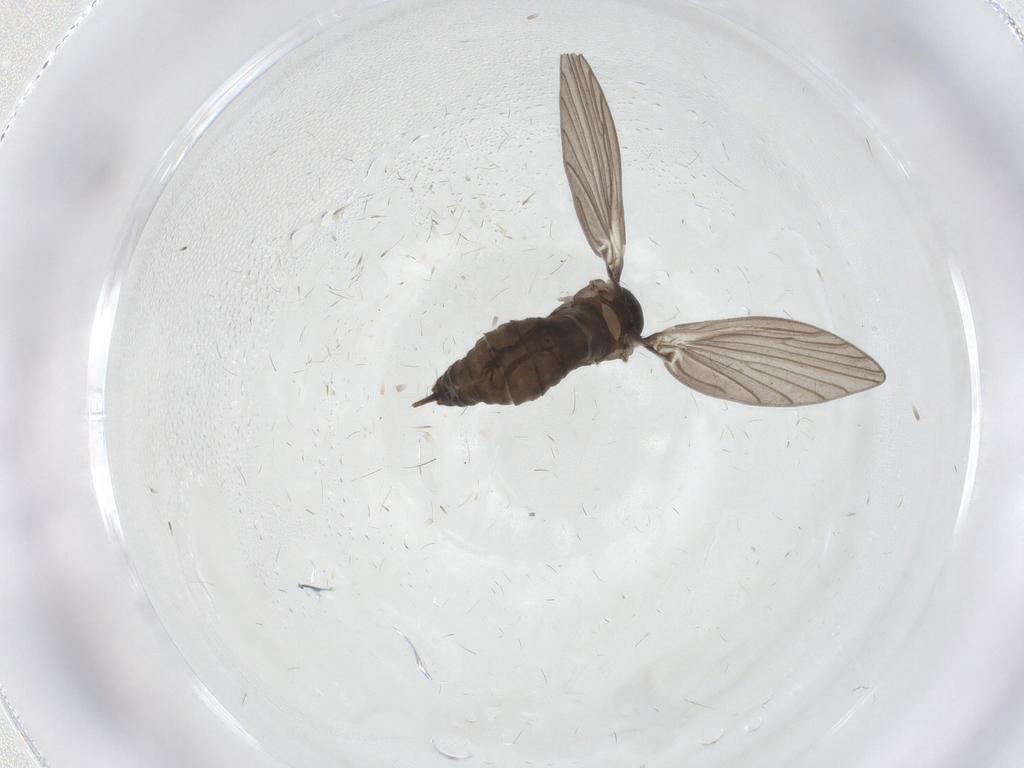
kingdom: Animalia
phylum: Arthropoda
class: Insecta
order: Diptera
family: Psychodidae
